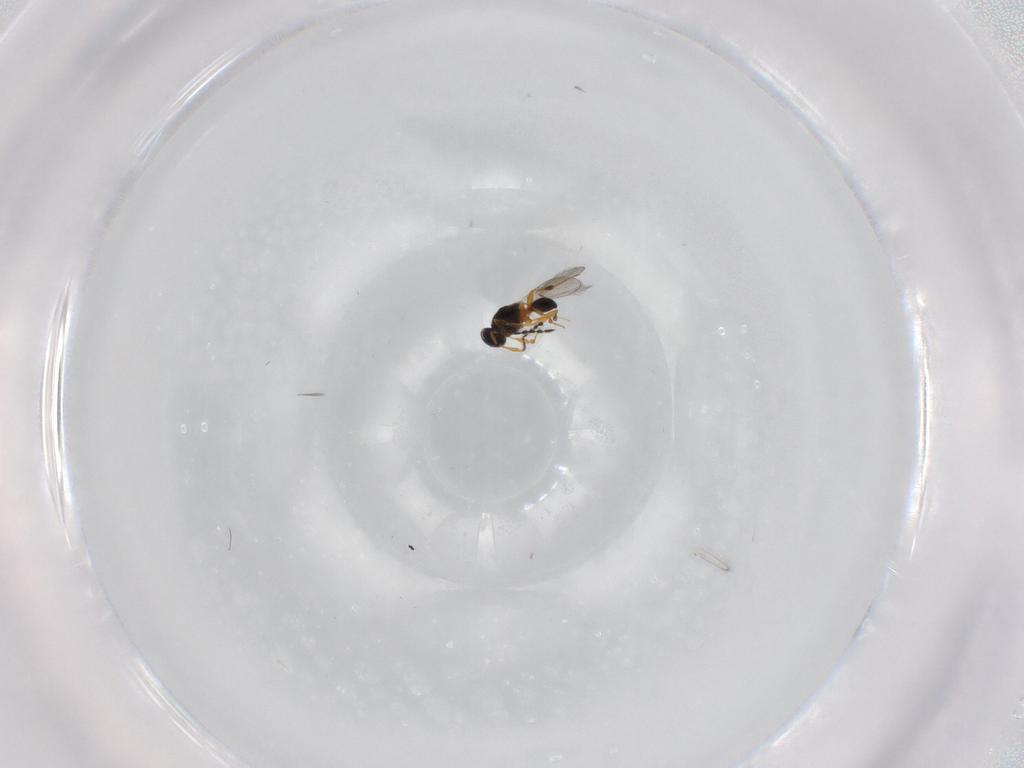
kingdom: Animalia
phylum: Arthropoda
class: Insecta
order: Hymenoptera
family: Platygastridae
